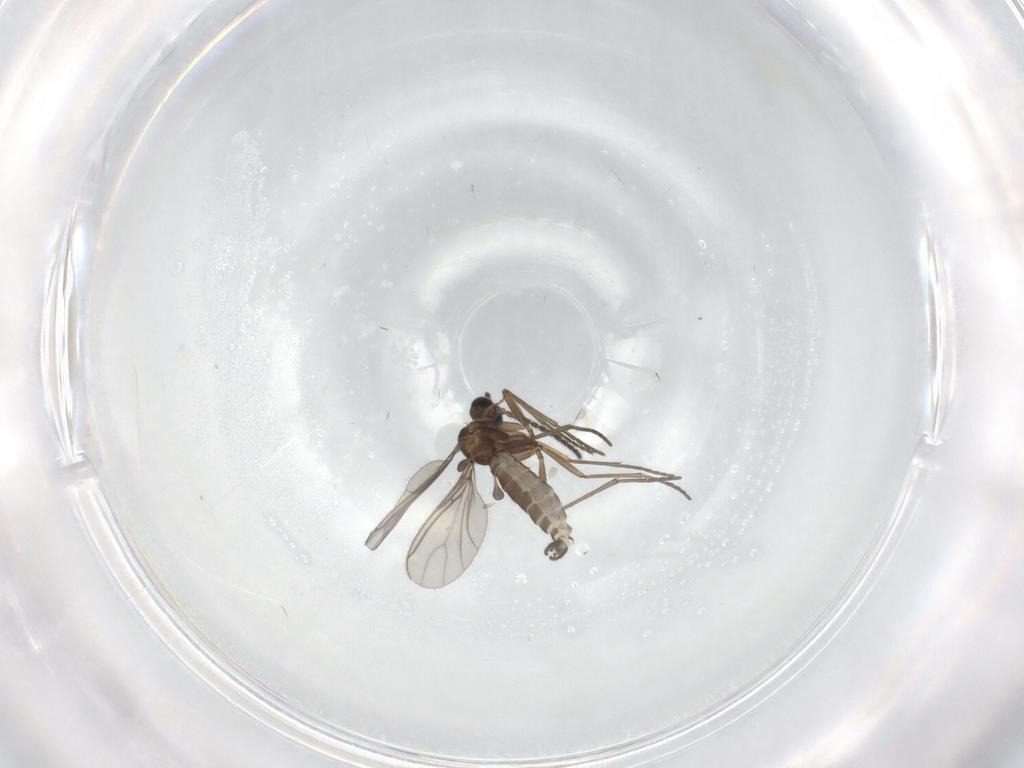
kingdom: Animalia
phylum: Arthropoda
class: Insecta
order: Diptera
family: Sciaridae
